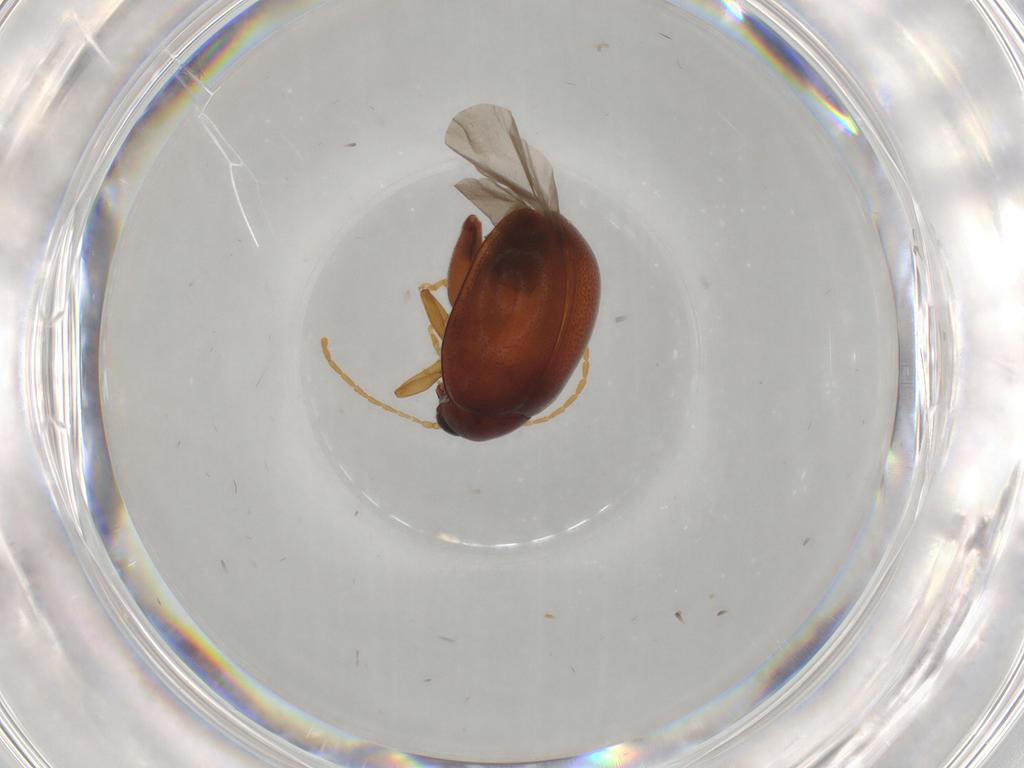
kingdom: Animalia
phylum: Arthropoda
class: Insecta
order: Coleoptera
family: Chrysomelidae
